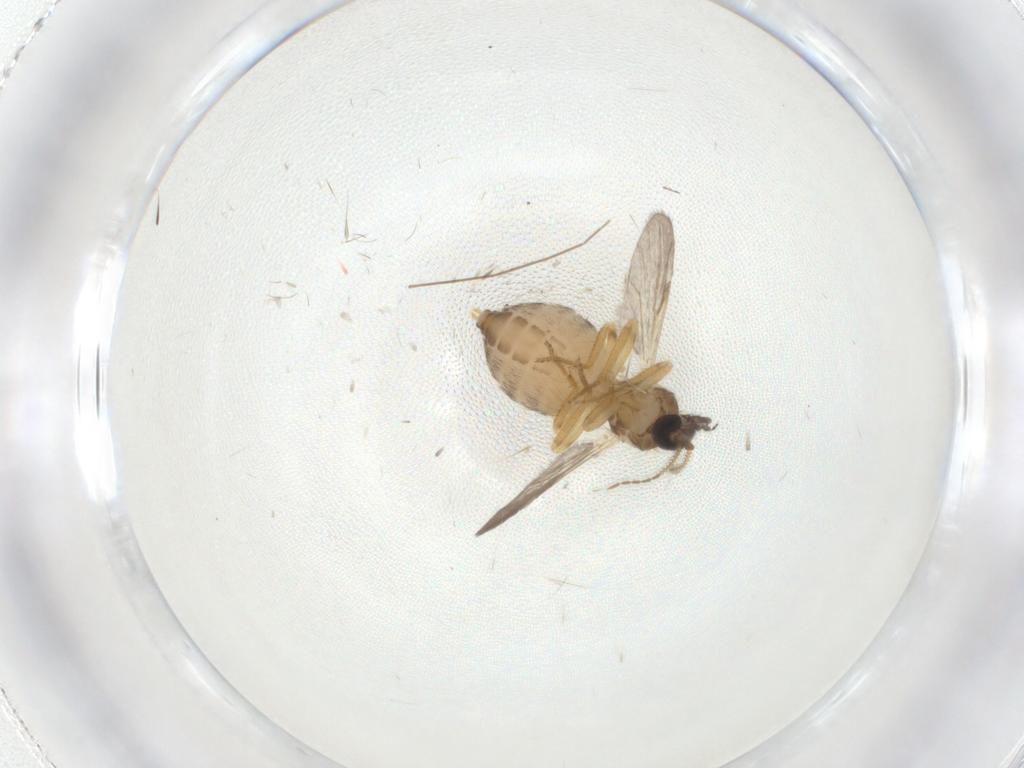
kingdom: Animalia
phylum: Arthropoda
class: Insecta
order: Diptera
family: Ceratopogonidae
